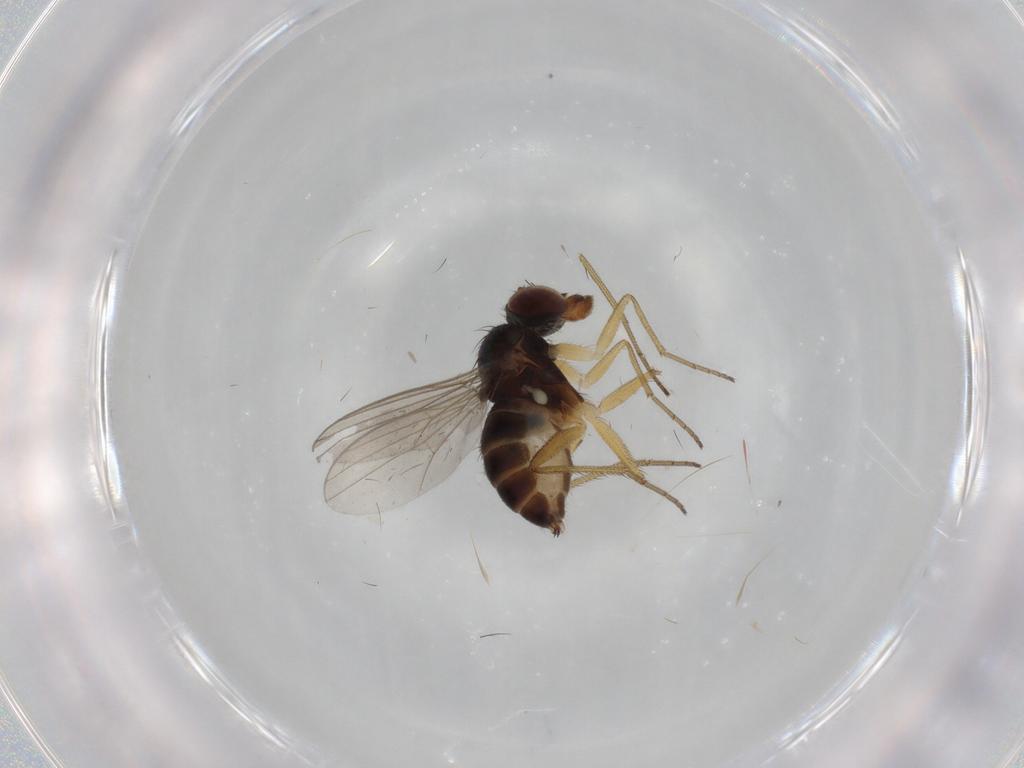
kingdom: Animalia
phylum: Arthropoda
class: Insecta
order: Diptera
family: Dolichopodidae
